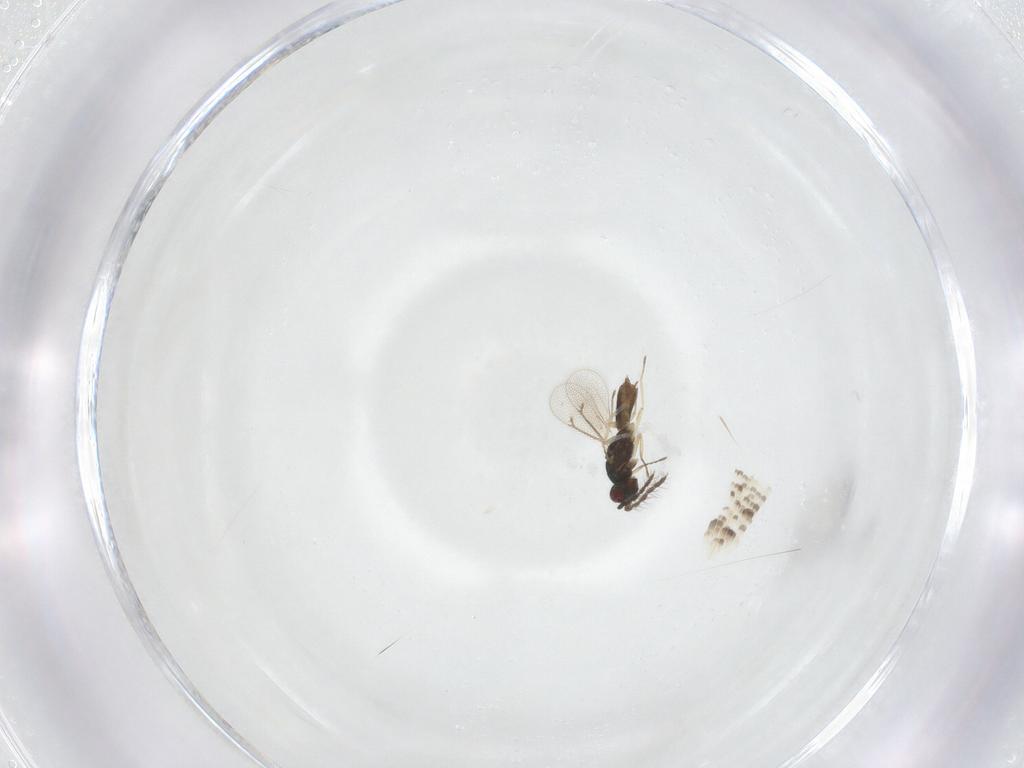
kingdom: Animalia
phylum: Arthropoda
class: Insecta
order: Hymenoptera
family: Eulophidae
